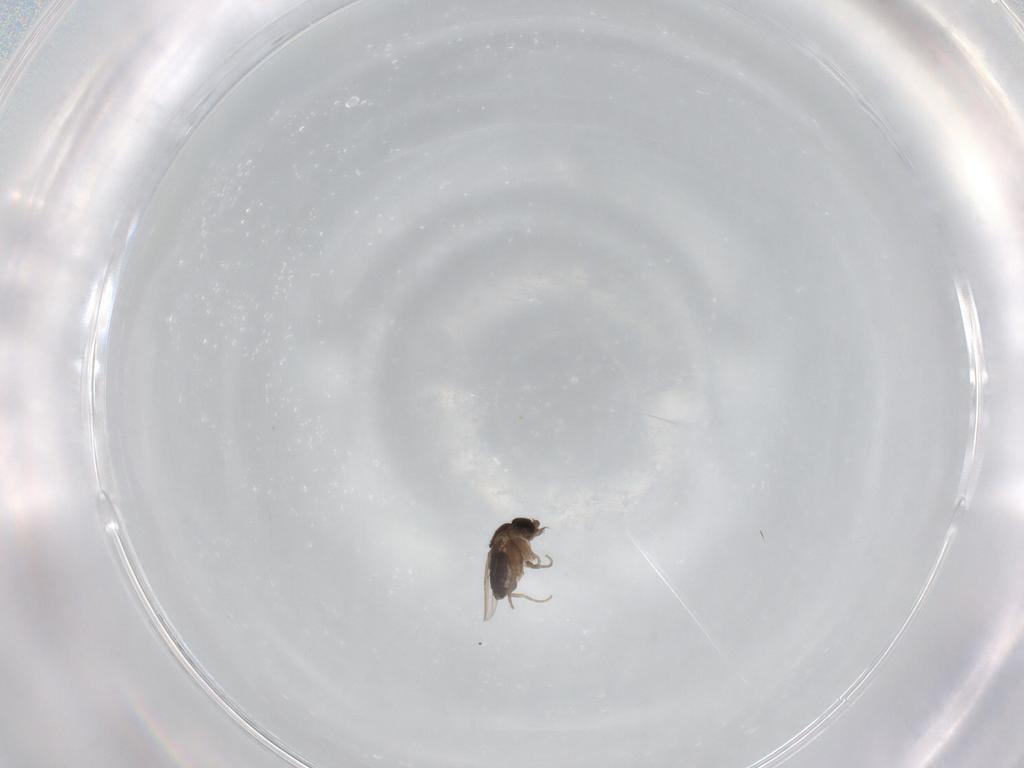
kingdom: Animalia
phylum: Arthropoda
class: Insecta
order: Diptera
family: Phoridae
